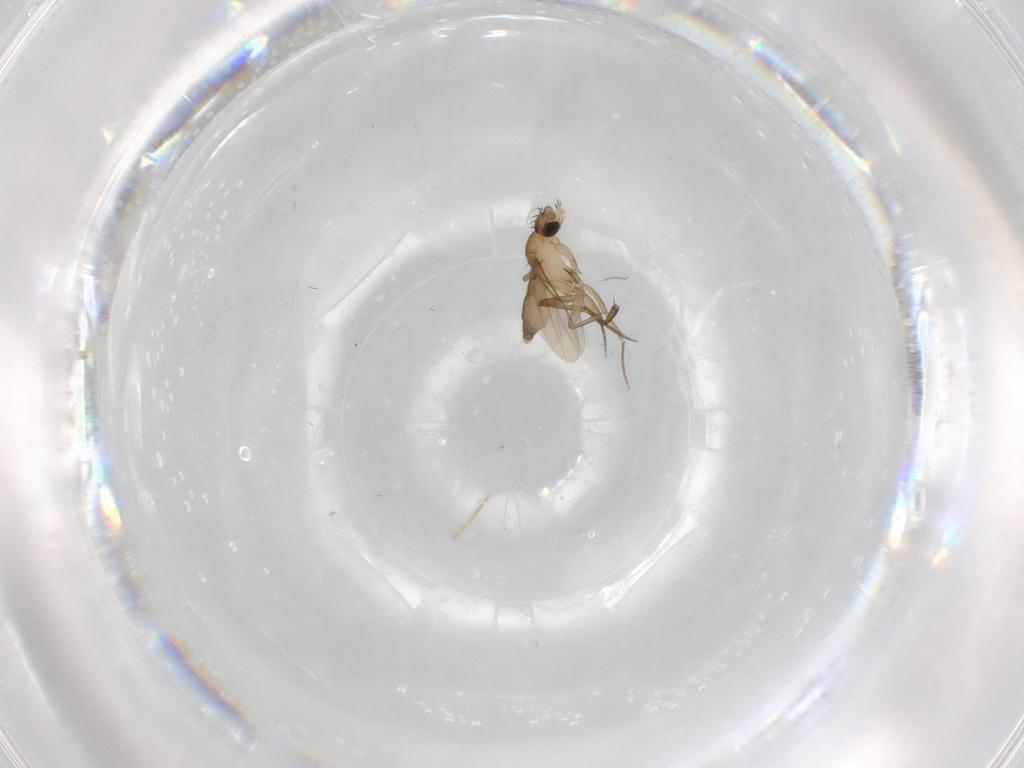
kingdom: Animalia
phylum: Arthropoda
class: Insecta
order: Diptera
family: Phoridae
